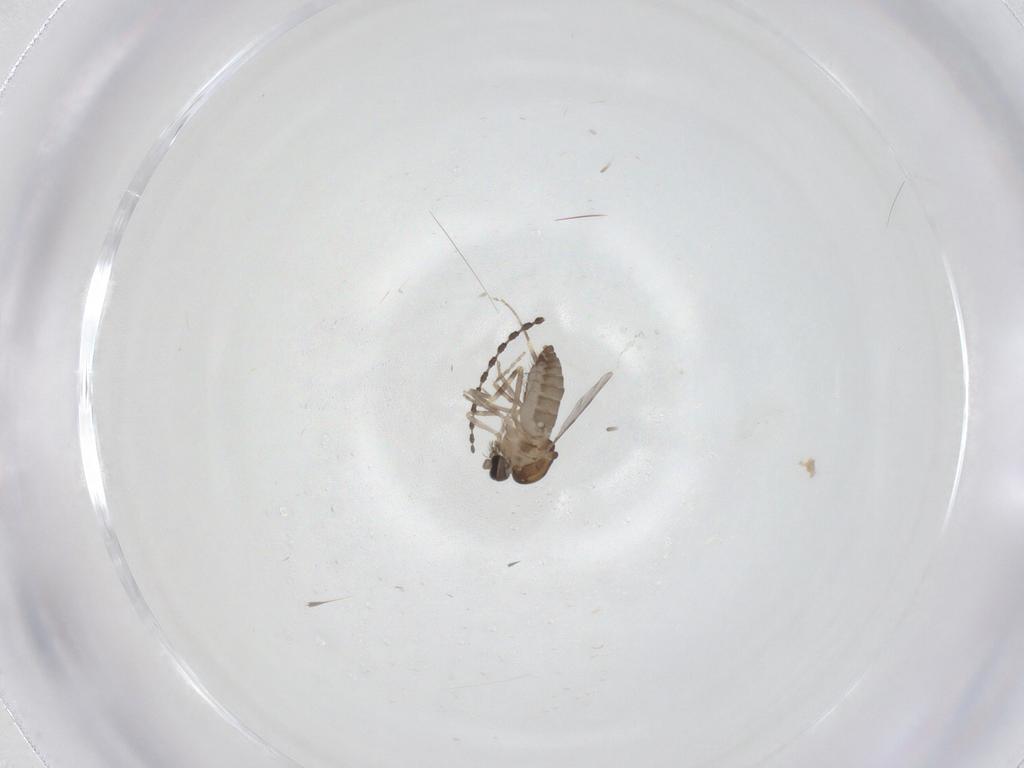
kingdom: Animalia
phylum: Arthropoda
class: Insecta
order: Diptera
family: Ceratopogonidae
